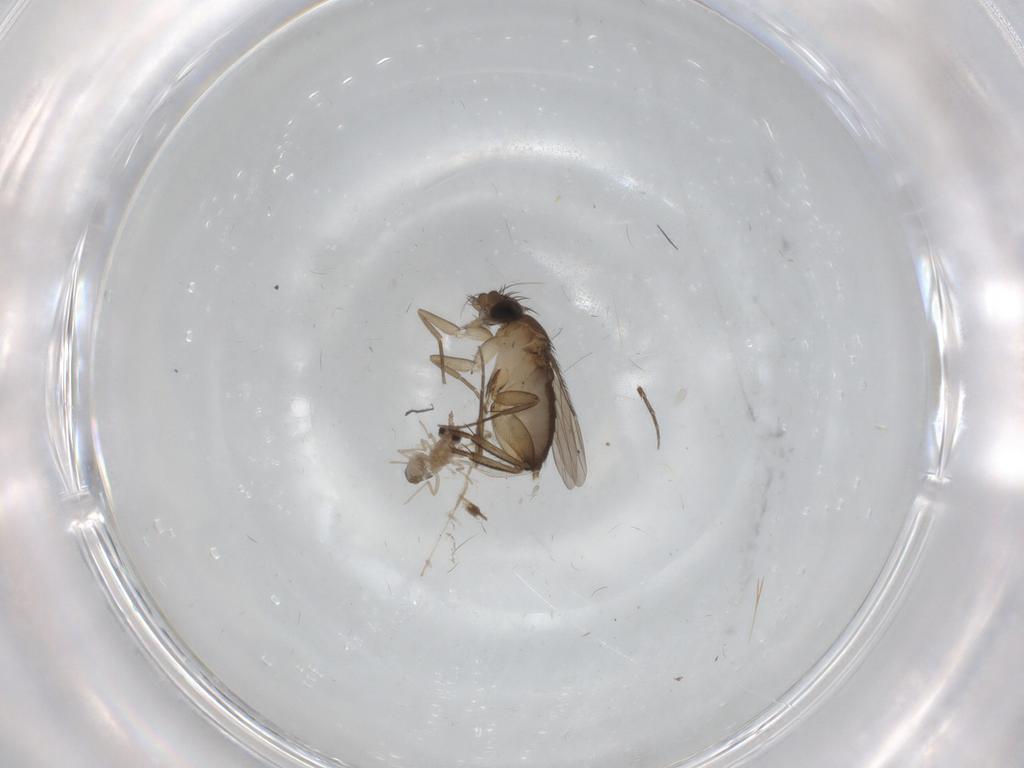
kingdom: Animalia
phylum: Arthropoda
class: Insecta
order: Diptera
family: Phoridae
